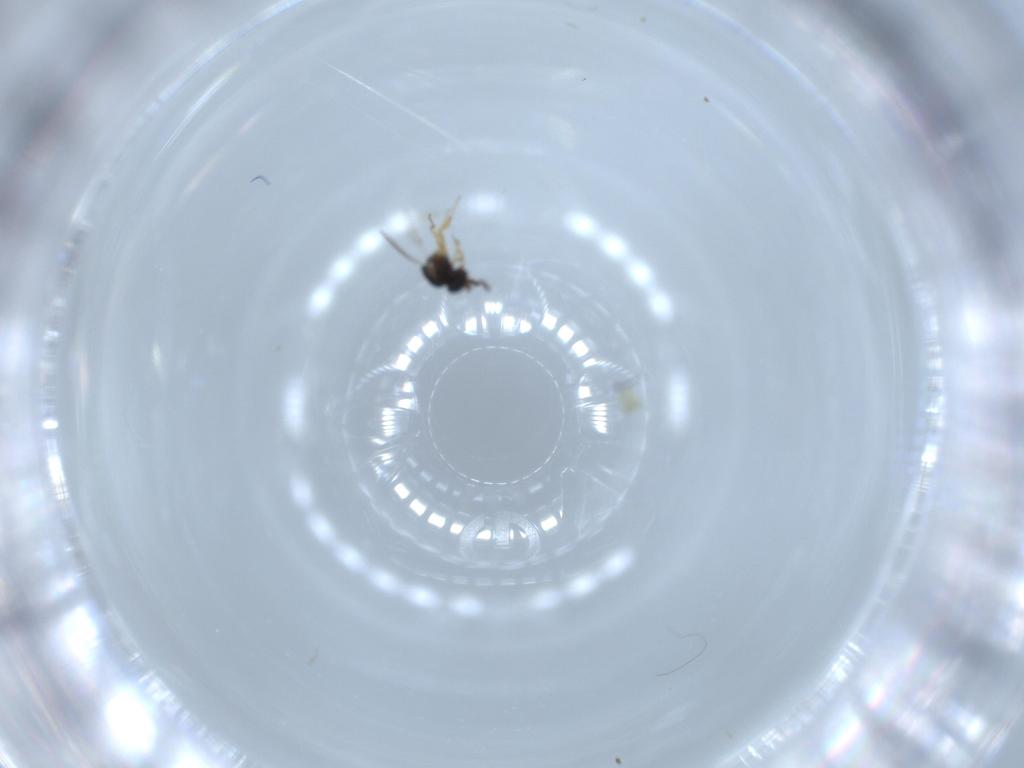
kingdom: Animalia
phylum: Arthropoda
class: Insecta
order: Hymenoptera
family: Scelionidae
